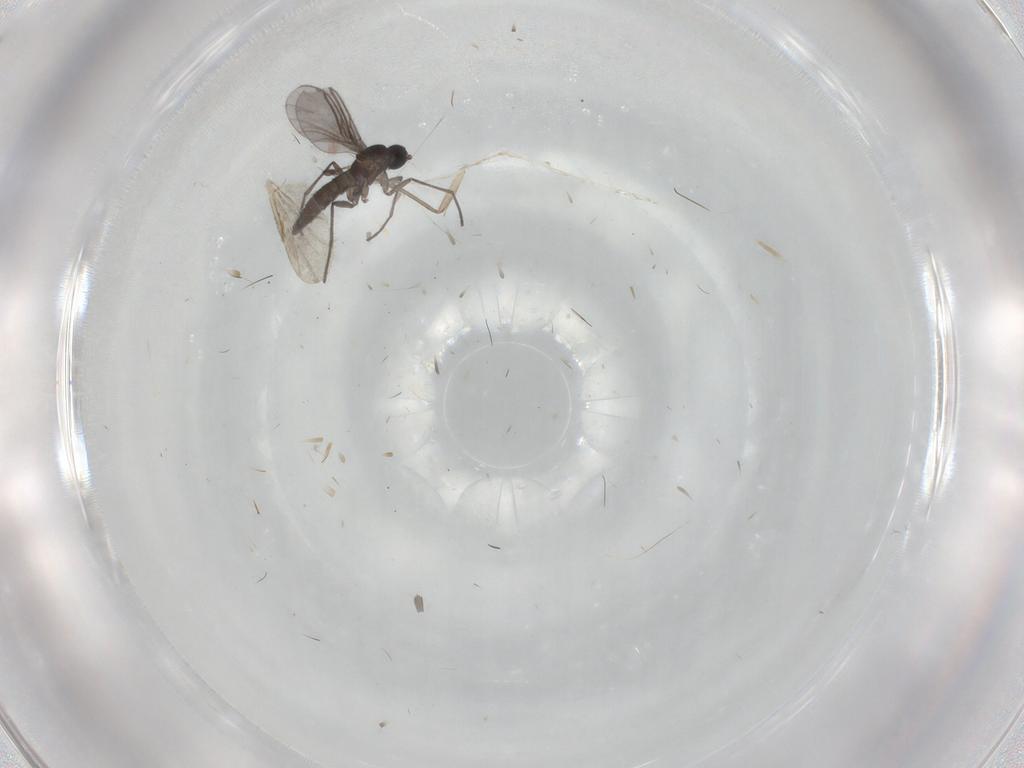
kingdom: Animalia
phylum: Arthropoda
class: Insecta
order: Diptera
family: Cecidomyiidae
